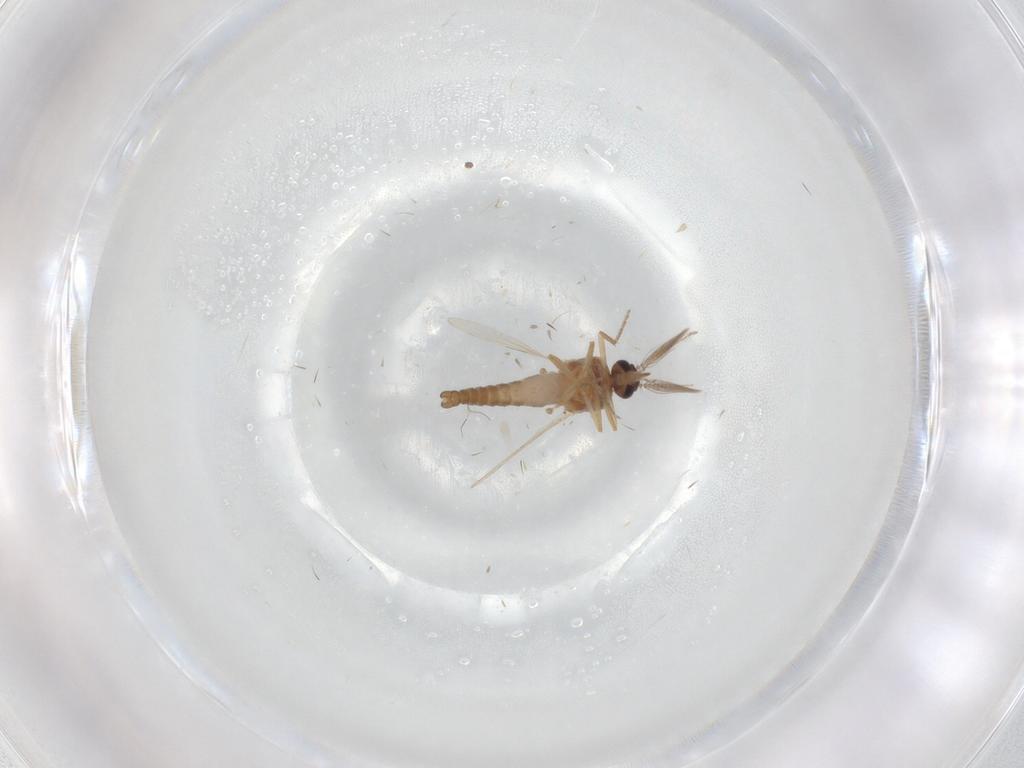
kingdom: Animalia
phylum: Arthropoda
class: Insecta
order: Diptera
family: Ceratopogonidae
